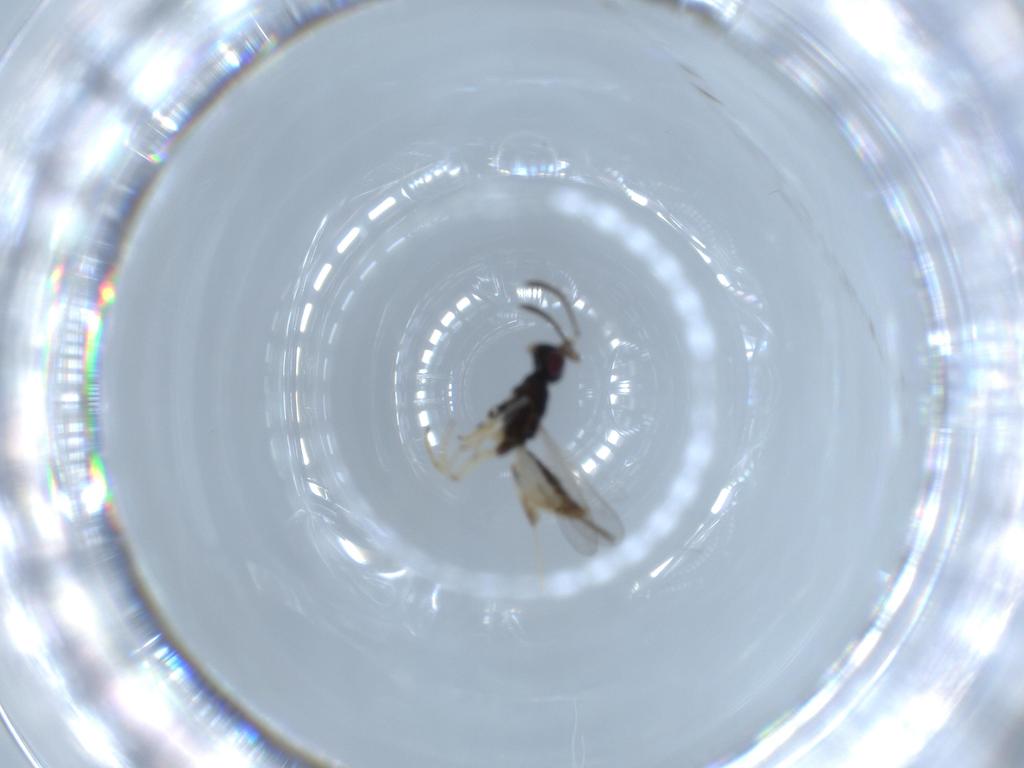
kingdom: Animalia
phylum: Arthropoda
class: Insecta
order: Hymenoptera
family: Eupelmidae
